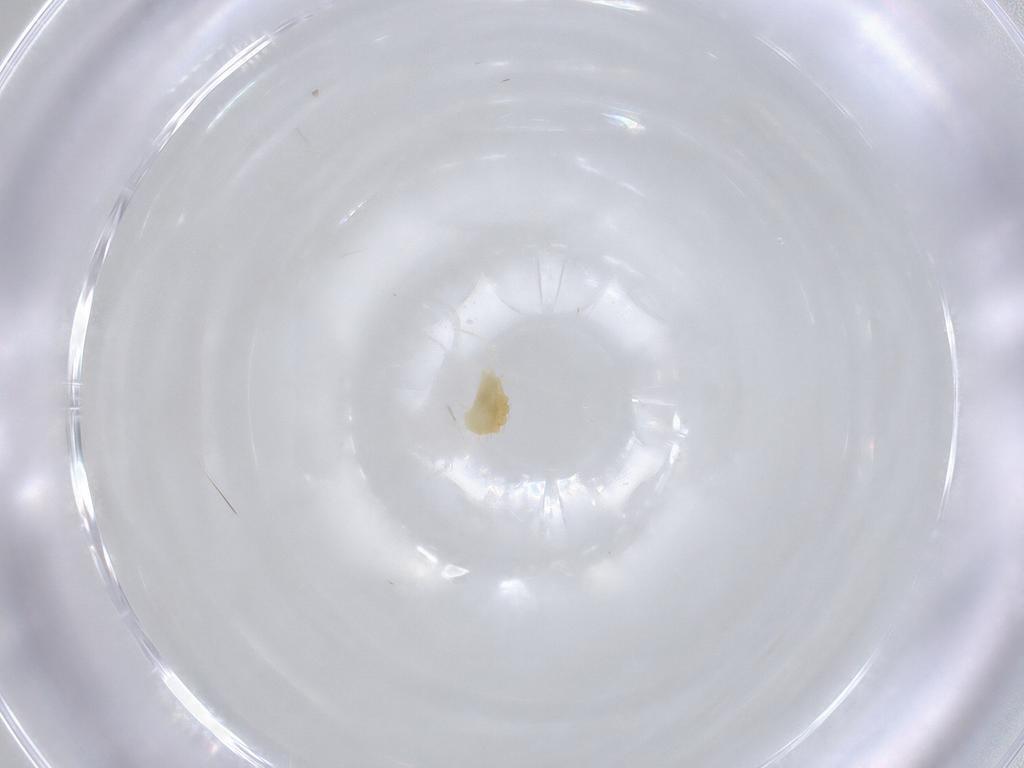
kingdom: Animalia
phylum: Arthropoda
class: Arachnida
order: Trombidiformes
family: Tetranychidae
